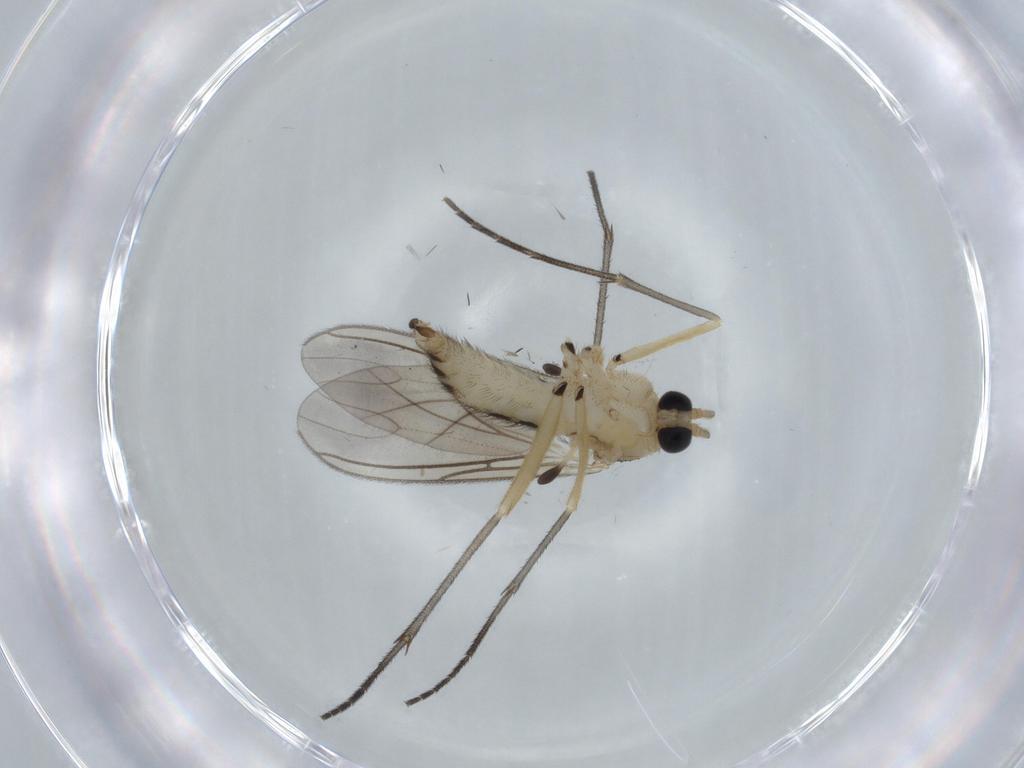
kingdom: Animalia
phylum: Arthropoda
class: Insecta
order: Diptera
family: Sciaridae
